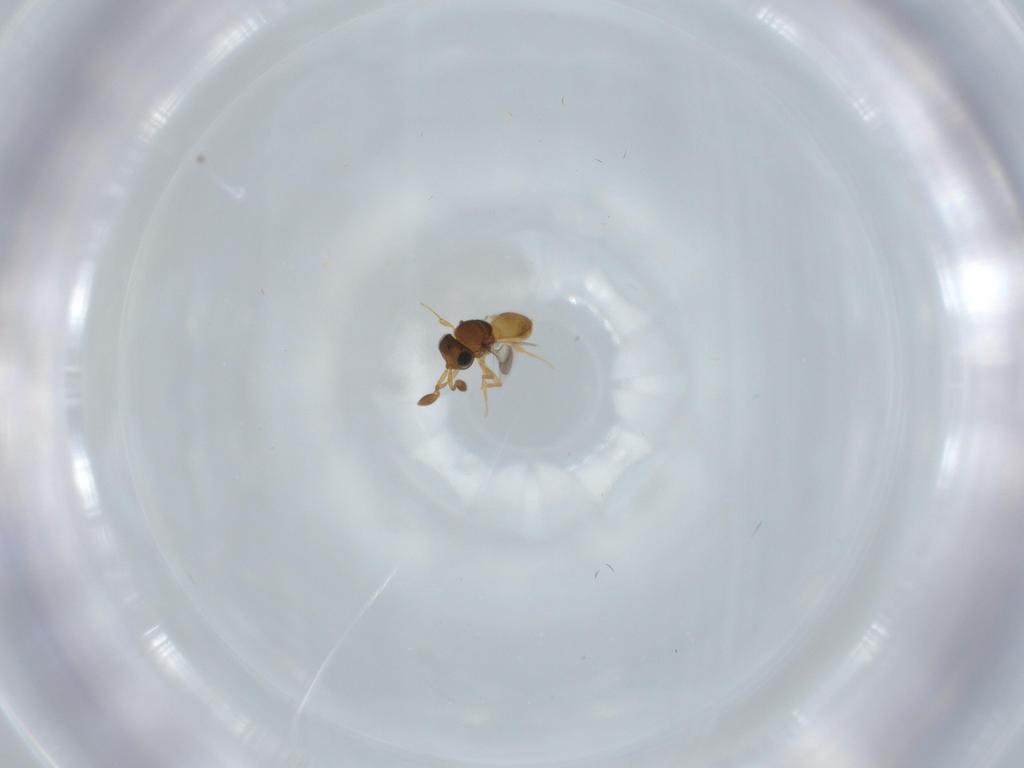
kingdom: Animalia
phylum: Arthropoda
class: Insecta
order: Hymenoptera
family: Scelionidae
